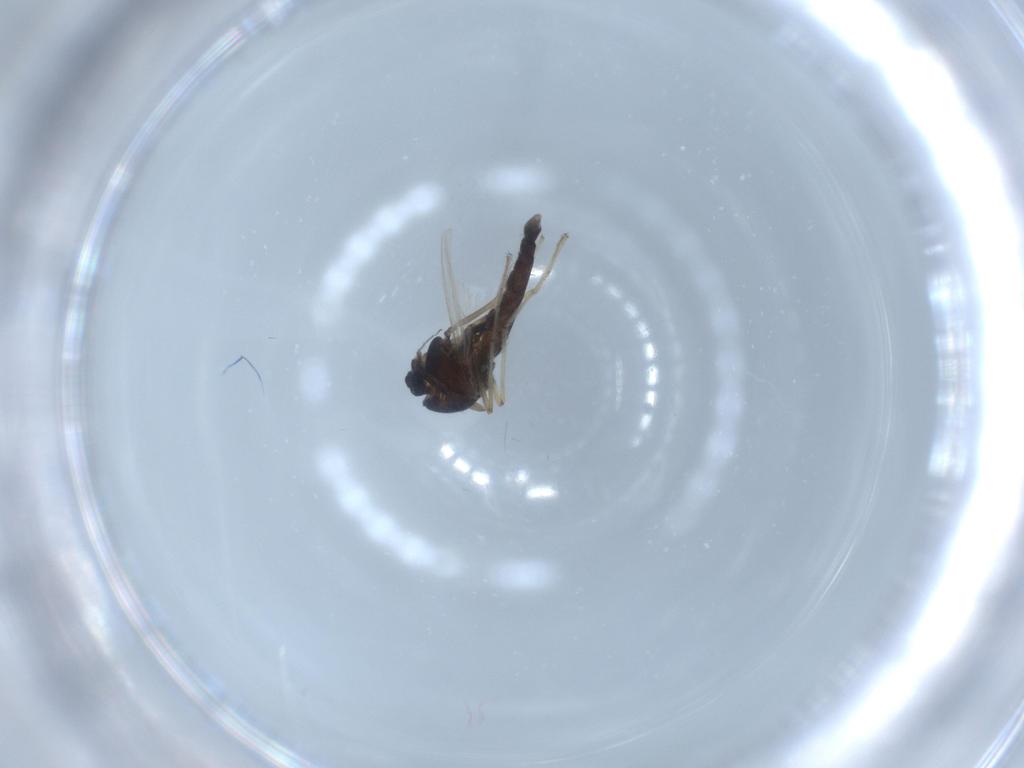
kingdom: Animalia
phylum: Arthropoda
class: Insecta
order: Diptera
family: Chironomidae
